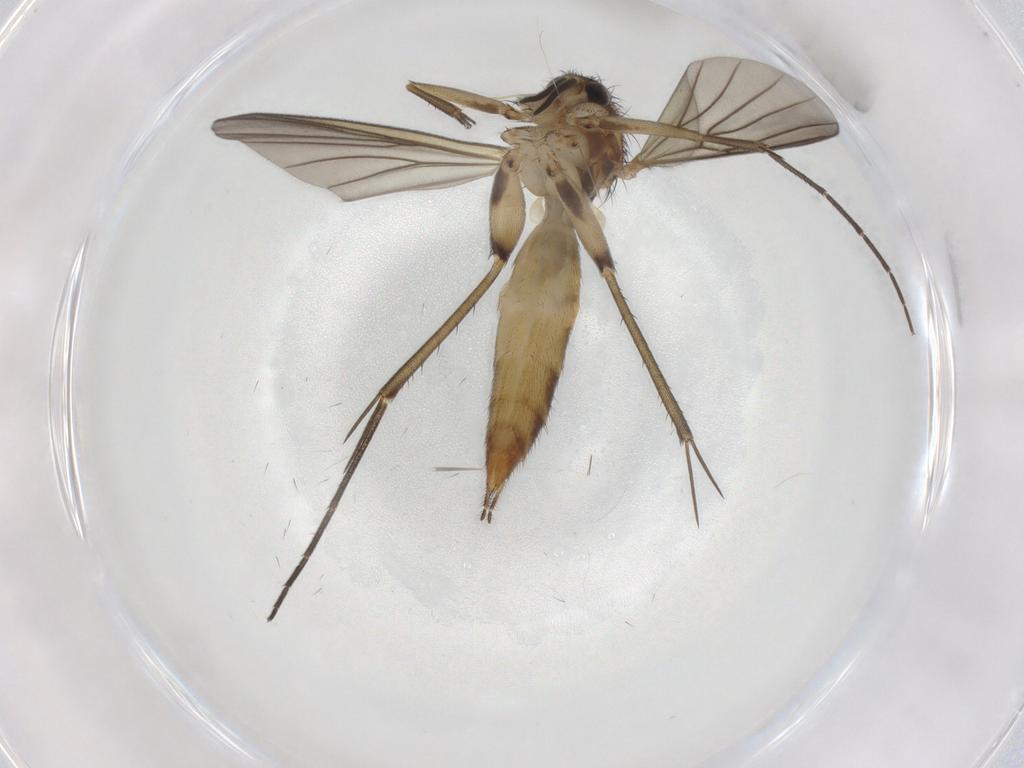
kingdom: Animalia
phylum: Arthropoda
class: Insecta
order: Diptera
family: Mycetophilidae
